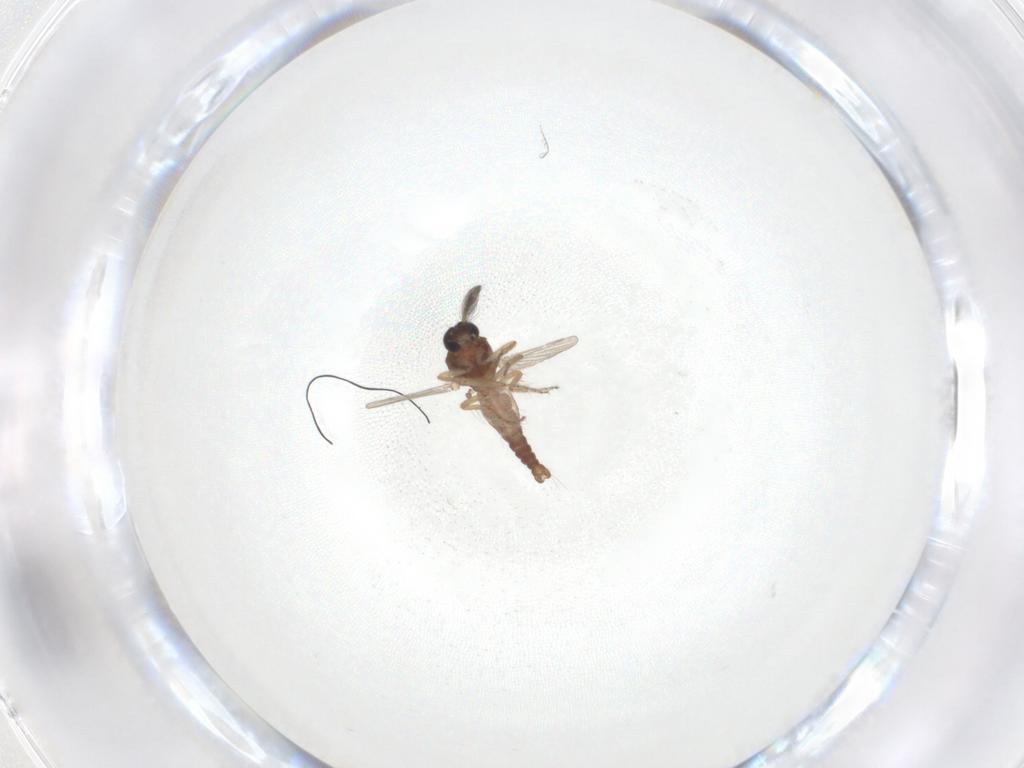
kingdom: Animalia
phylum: Arthropoda
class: Insecta
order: Diptera
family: Ceratopogonidae
